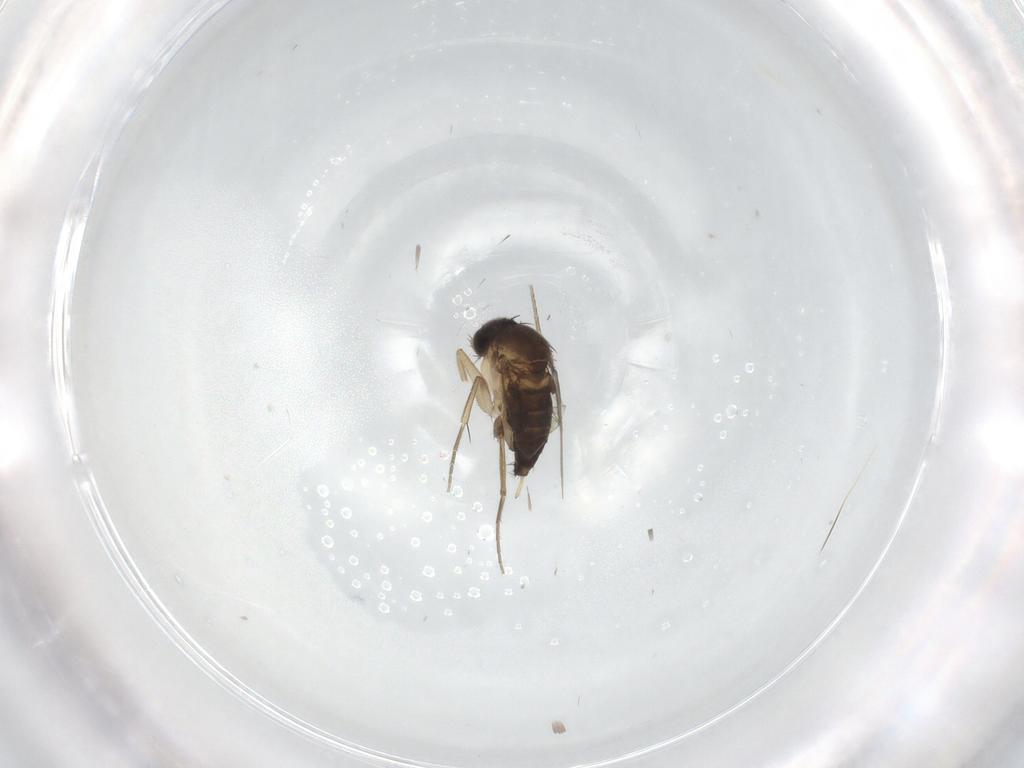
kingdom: Animalia
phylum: Arthropoda
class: Insecta
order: Diptera
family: Phoridae
